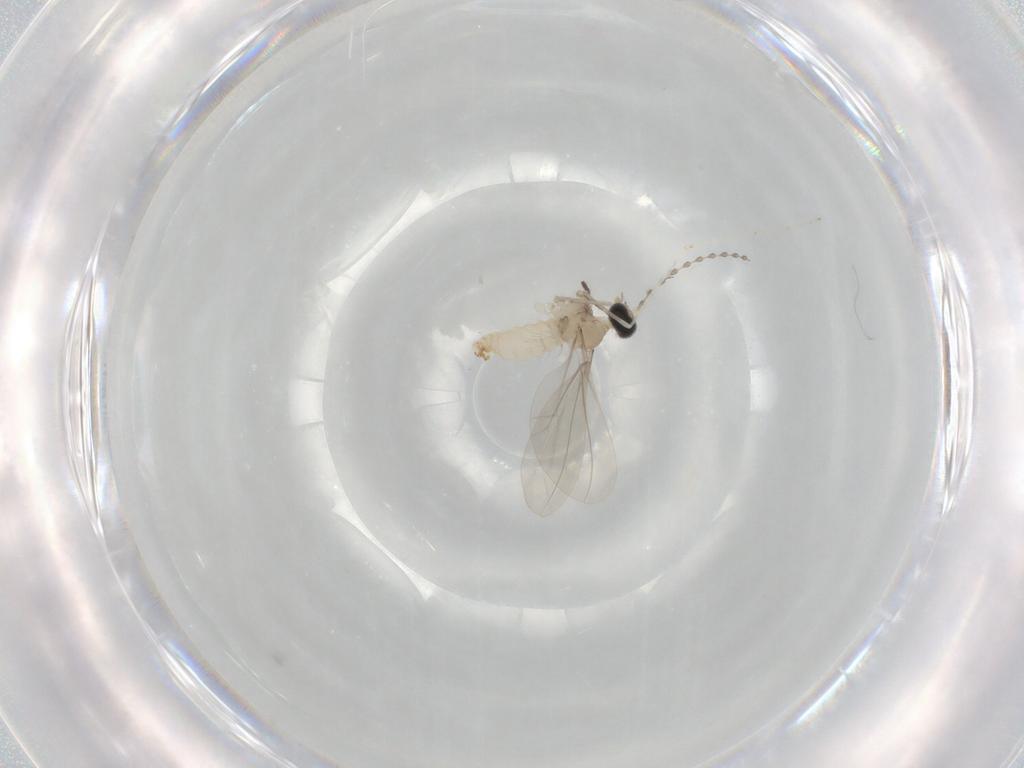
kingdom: Animalia
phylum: Arthropoda
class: Insecta
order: Diptera
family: Cecidomyiidae
